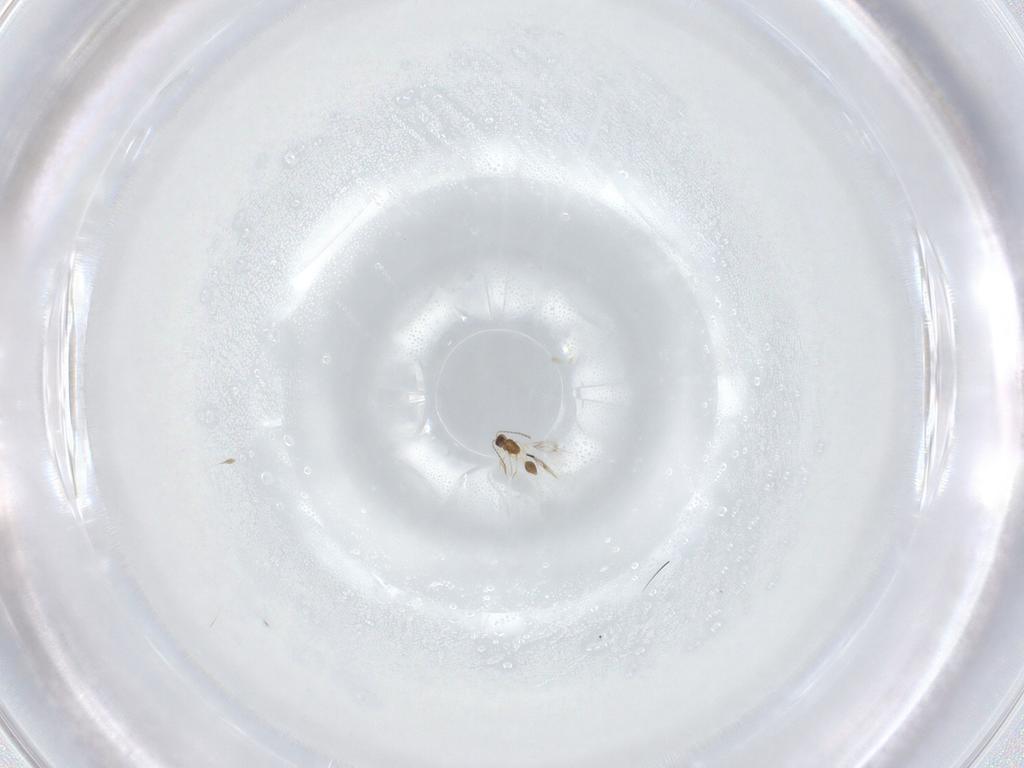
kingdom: Animalia
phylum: Arthropoda
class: Insecta
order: Hymenoptera
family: Mymarommatidae
